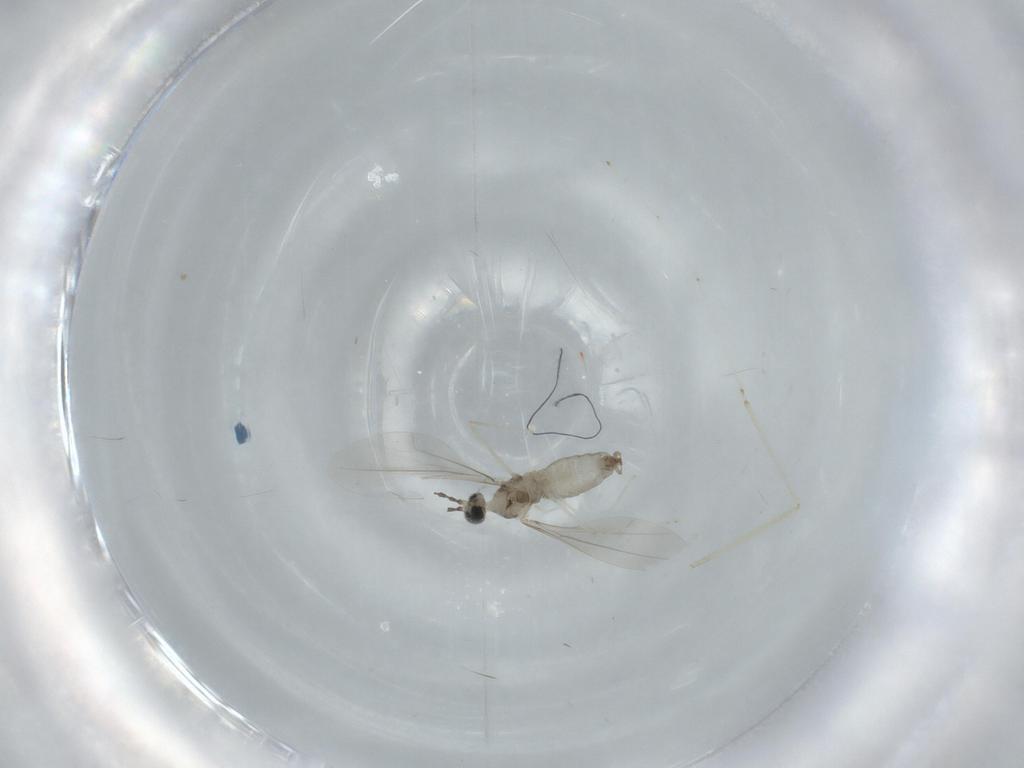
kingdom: Animalia
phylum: Arthropoda
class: Insecta
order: Diptera
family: Cecidomyiidae
